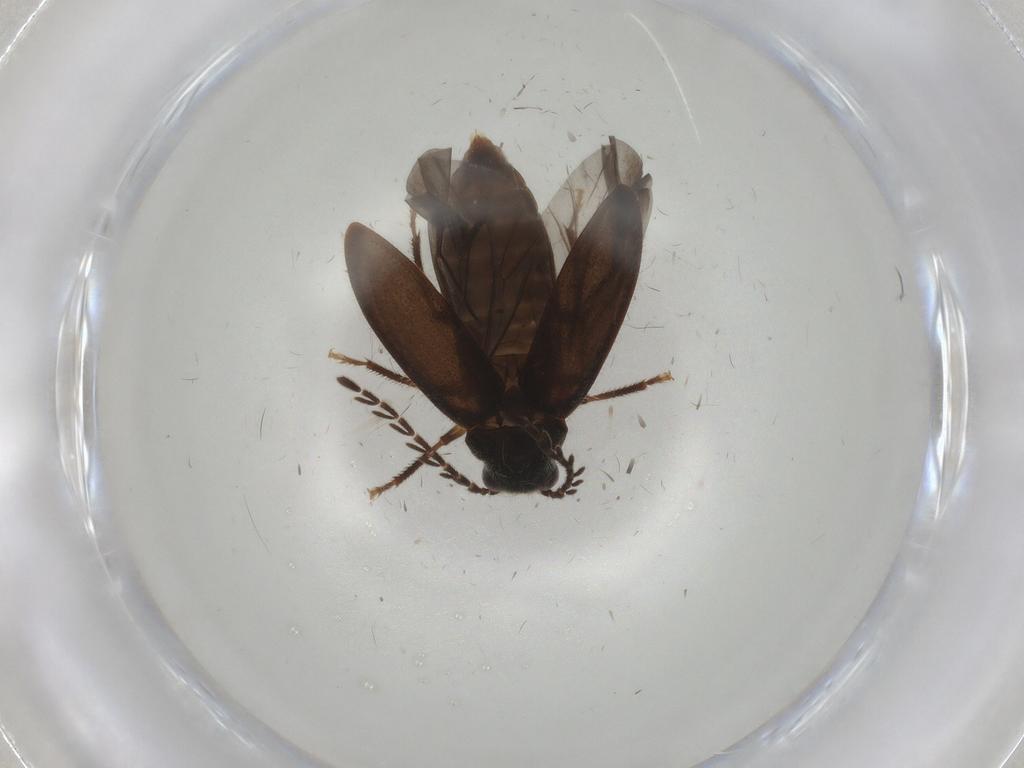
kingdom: Animalia
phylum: Arthropoda
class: Insecta
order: Coleoptera
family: Ptilodactylidae
